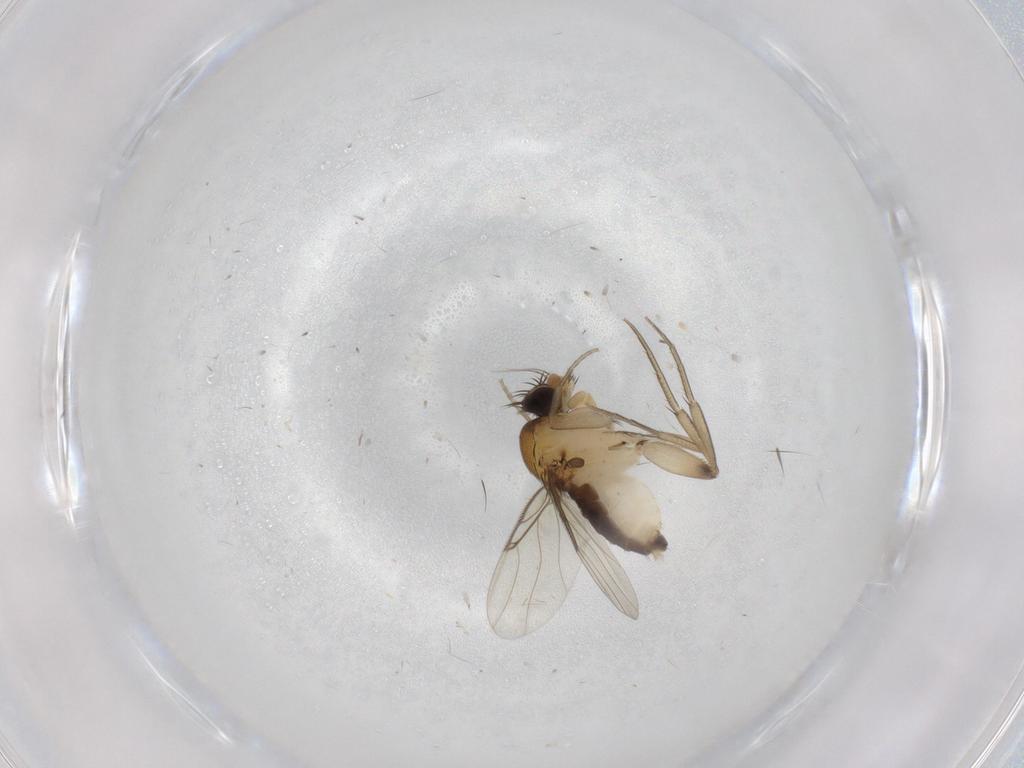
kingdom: Animalia
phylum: Arthropoda
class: Insecta
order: Diptera
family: Phoridae
